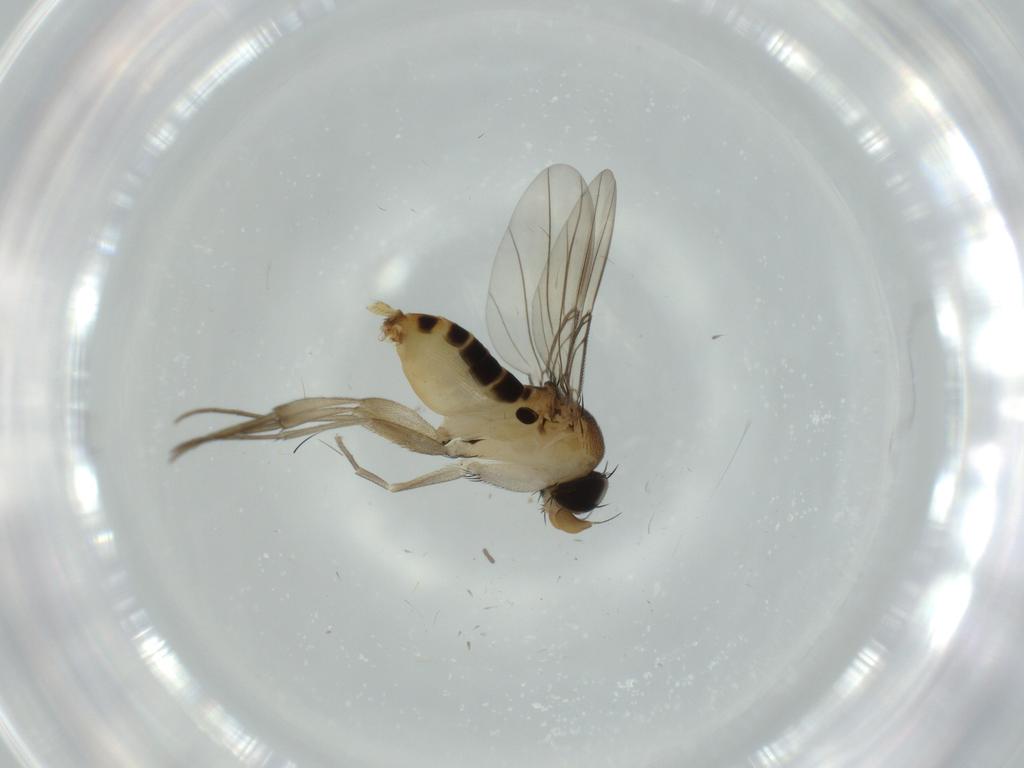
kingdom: Animalia
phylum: Arthropoda
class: Insecta
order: Diptera
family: Phoridae
